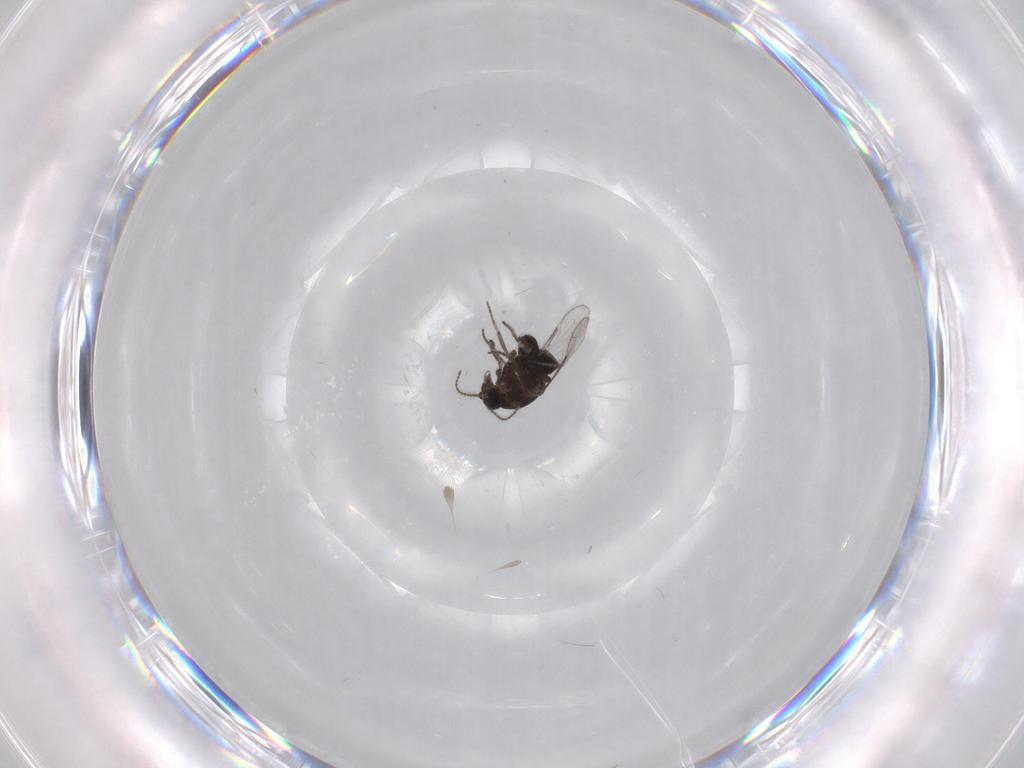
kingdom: Animalia
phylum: Arthropoda
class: Insecta
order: Diptera
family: Ceratopogonidae
